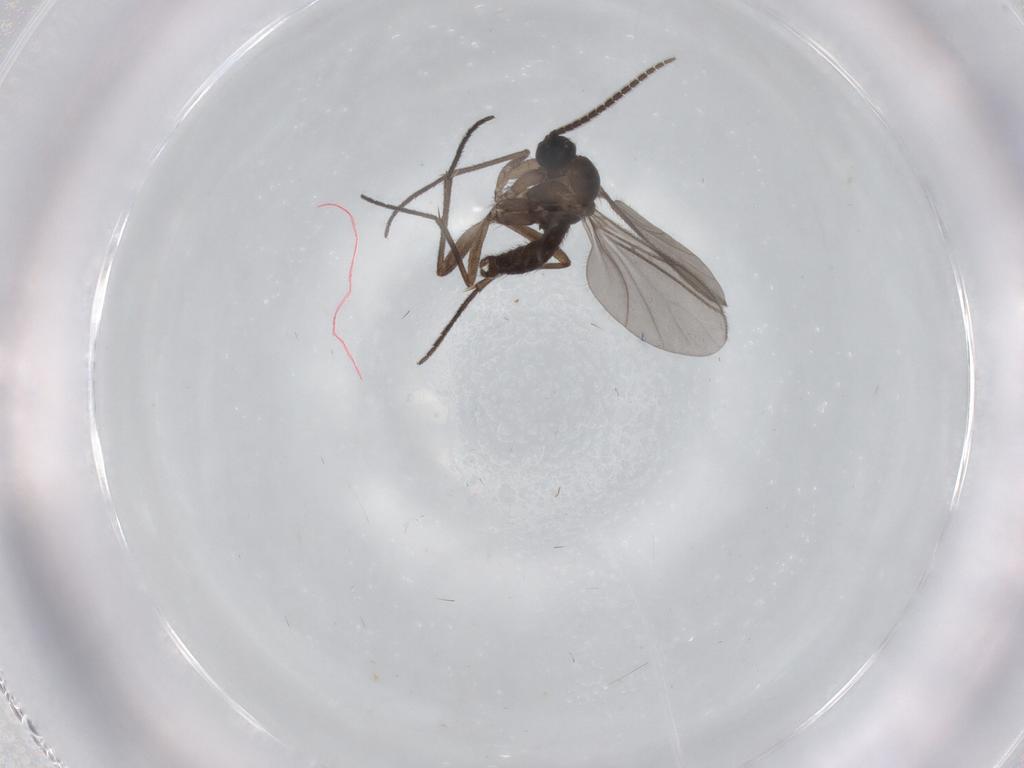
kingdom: Animalia
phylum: Arthropoda
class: Insecta
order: Diptera
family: Sciaridae
